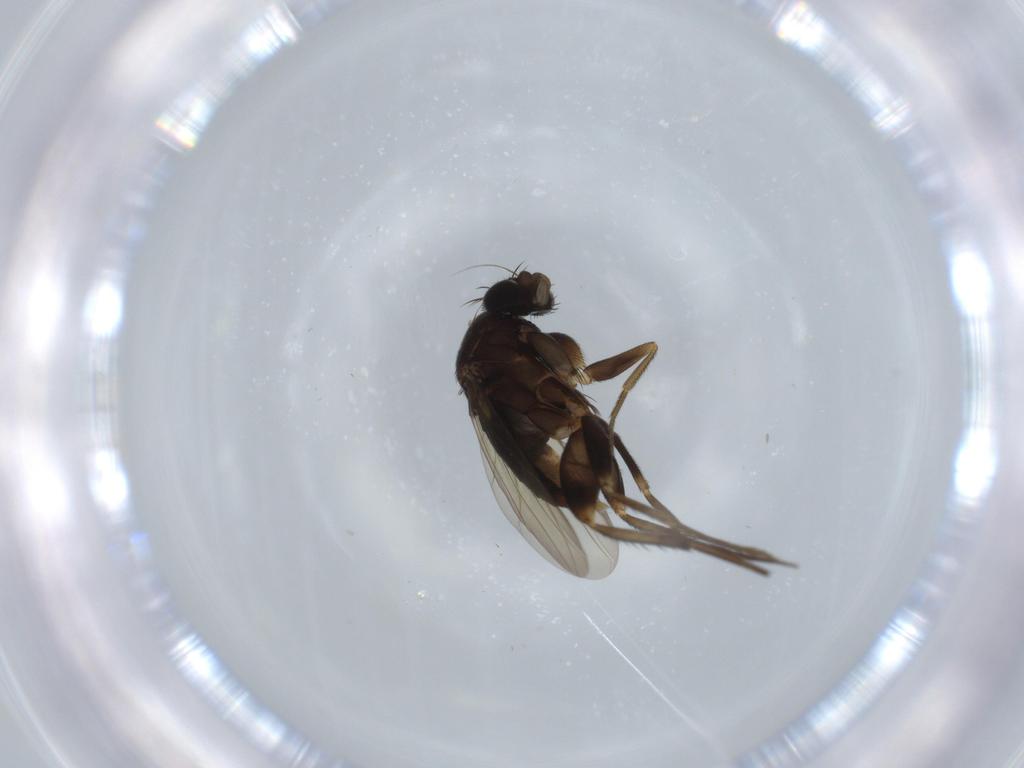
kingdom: Animalia
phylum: Arthropoda
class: Insecta
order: Diptera
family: Phoridae
